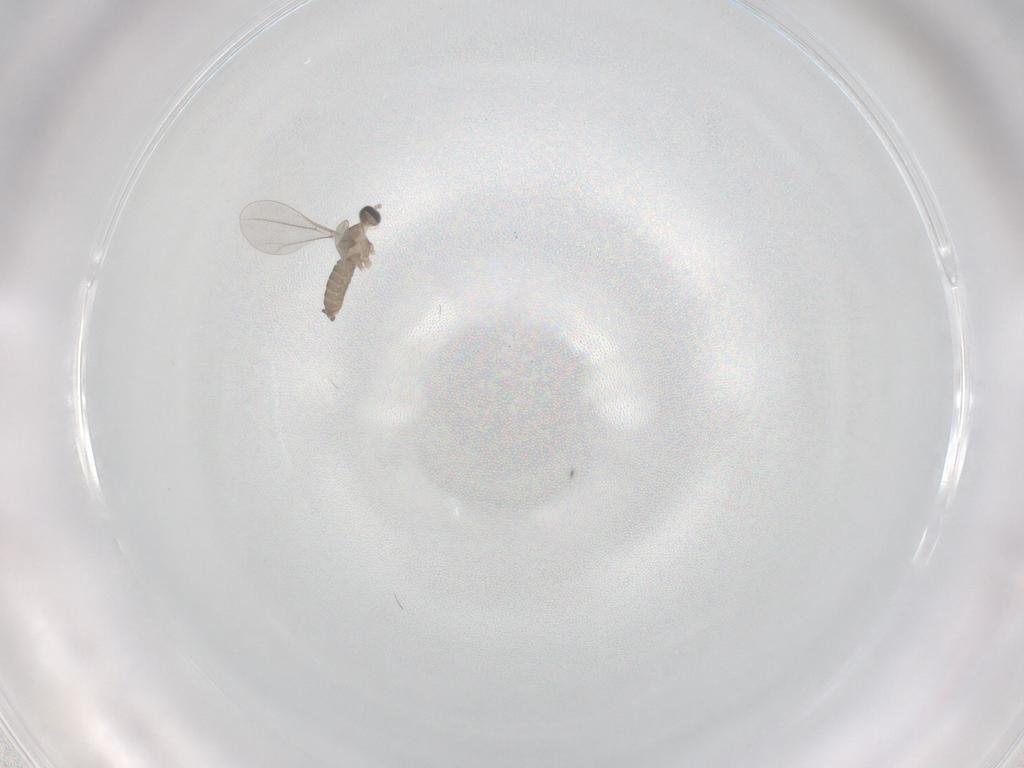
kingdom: Animalia
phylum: Arthropoda
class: Insecta
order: Diptera
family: Cecidomyiidae
